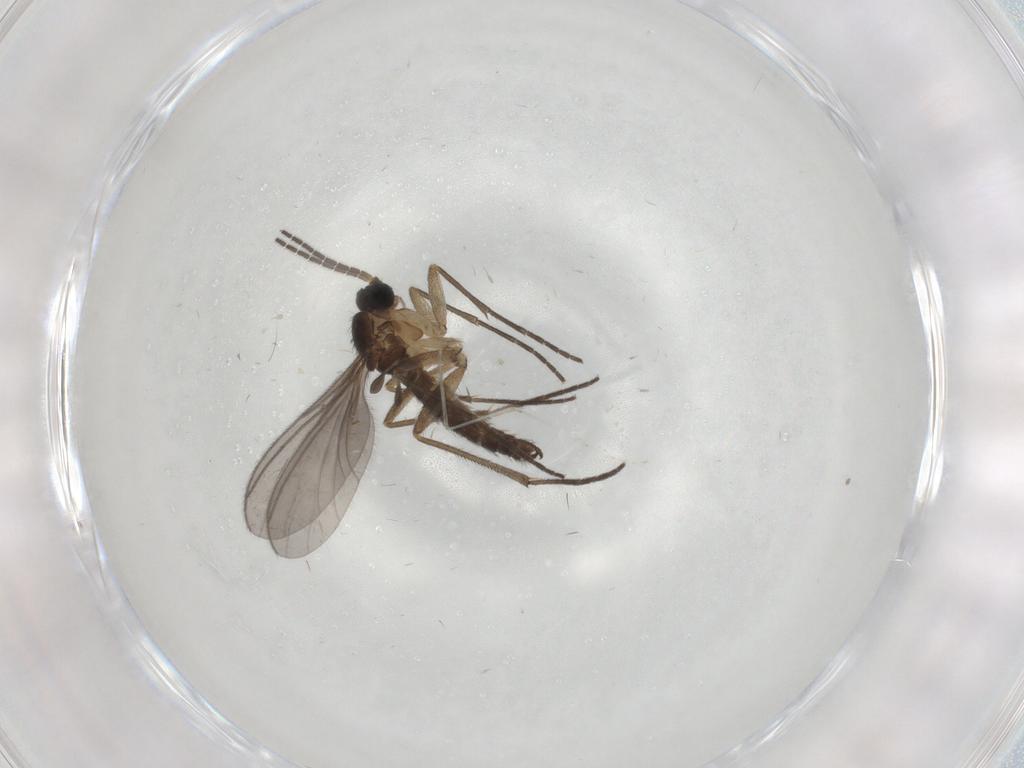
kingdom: Animalia
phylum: Arthropoda
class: Insecta
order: Diptera
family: Ceratopogonidae
